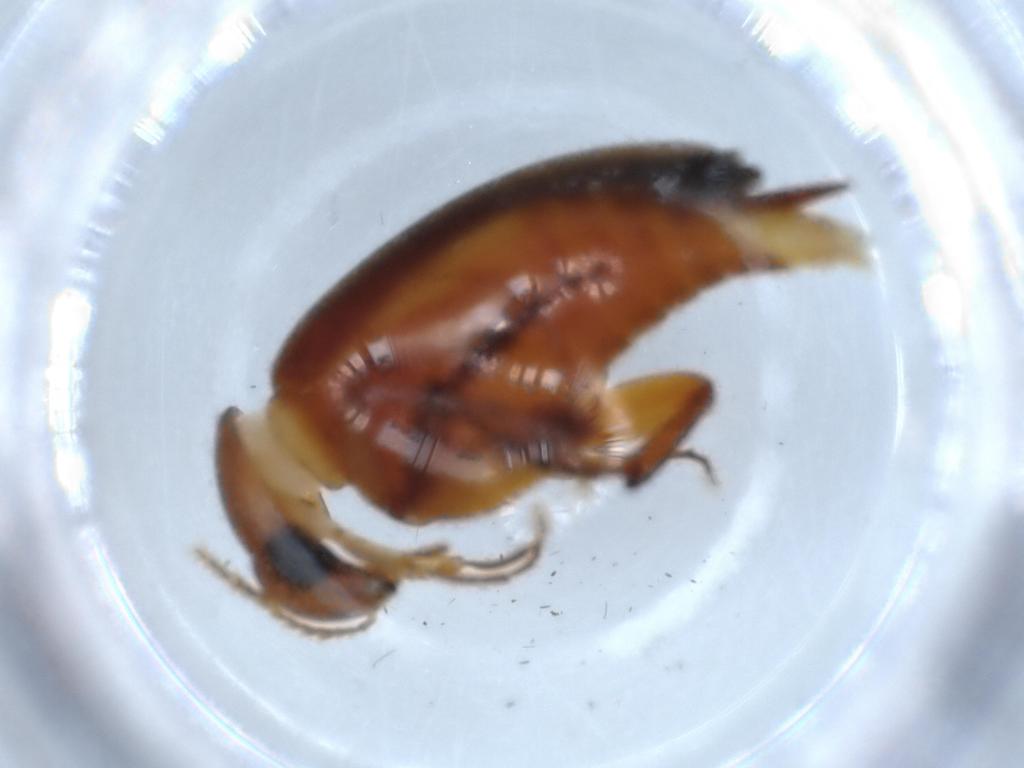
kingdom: Animalia
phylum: Arthropoda
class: Insecta
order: Coleoptera
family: Mordellidae
